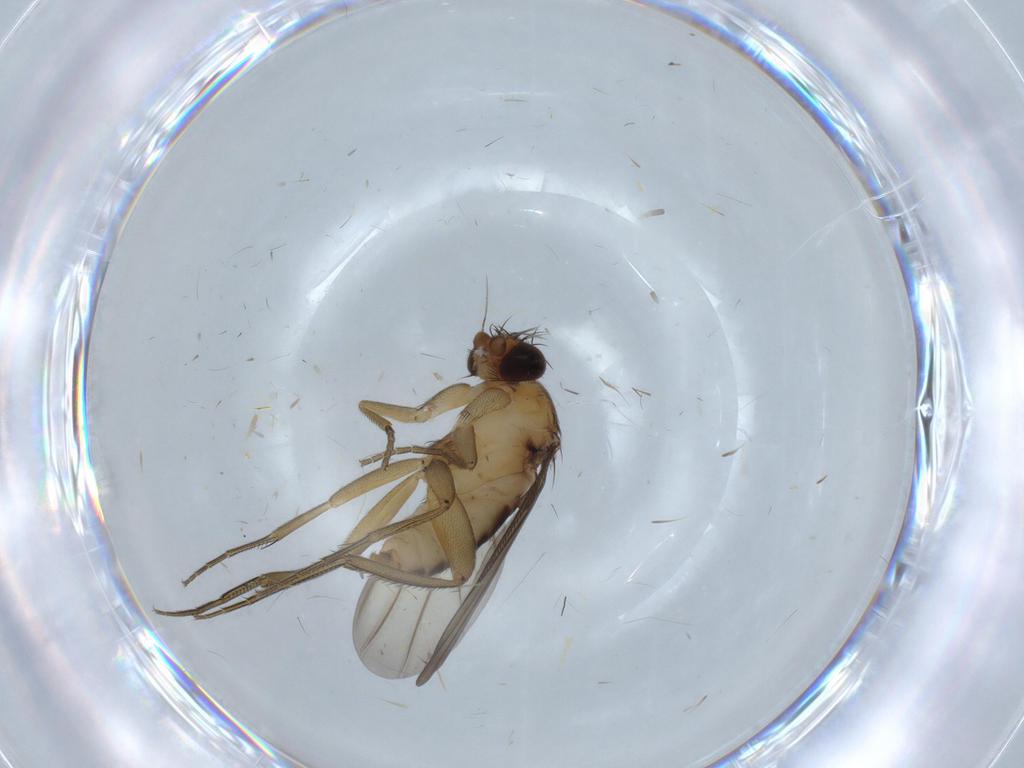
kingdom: Animalia
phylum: Arthropoda
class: Insecta
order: Diptera
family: Phoridae
